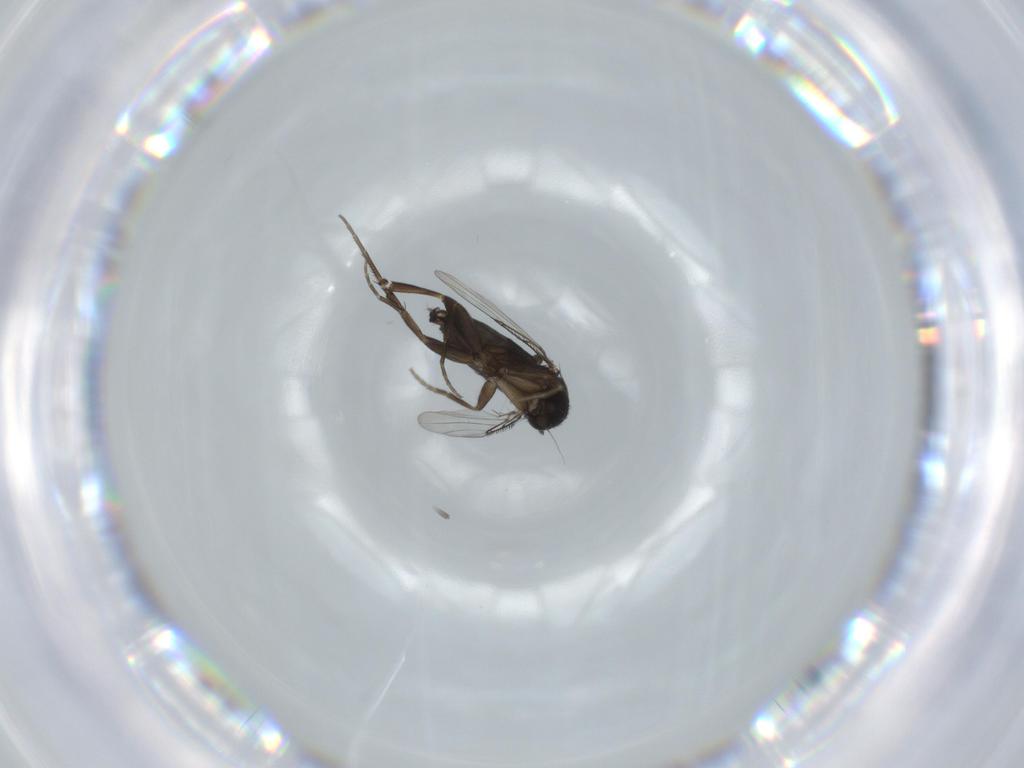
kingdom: Animalia
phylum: Arthropoda
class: Insecta
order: Diptera
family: Phoridae
